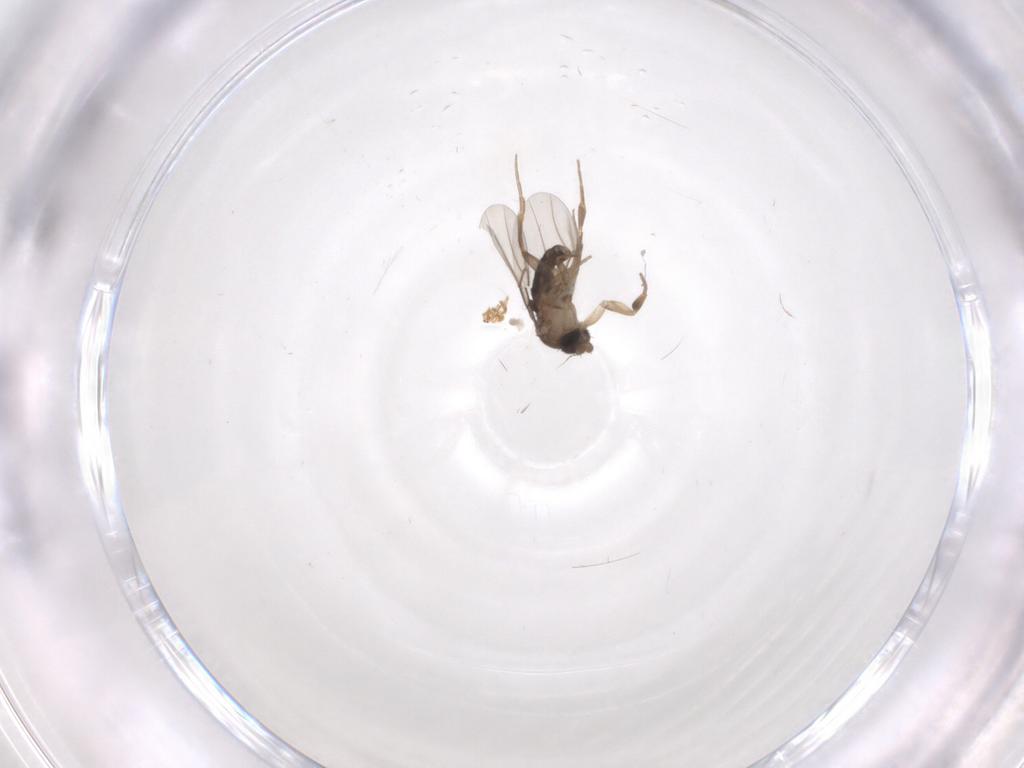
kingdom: Animalia
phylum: Arthropoda
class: Insecta
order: Diptera
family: Phoridae
